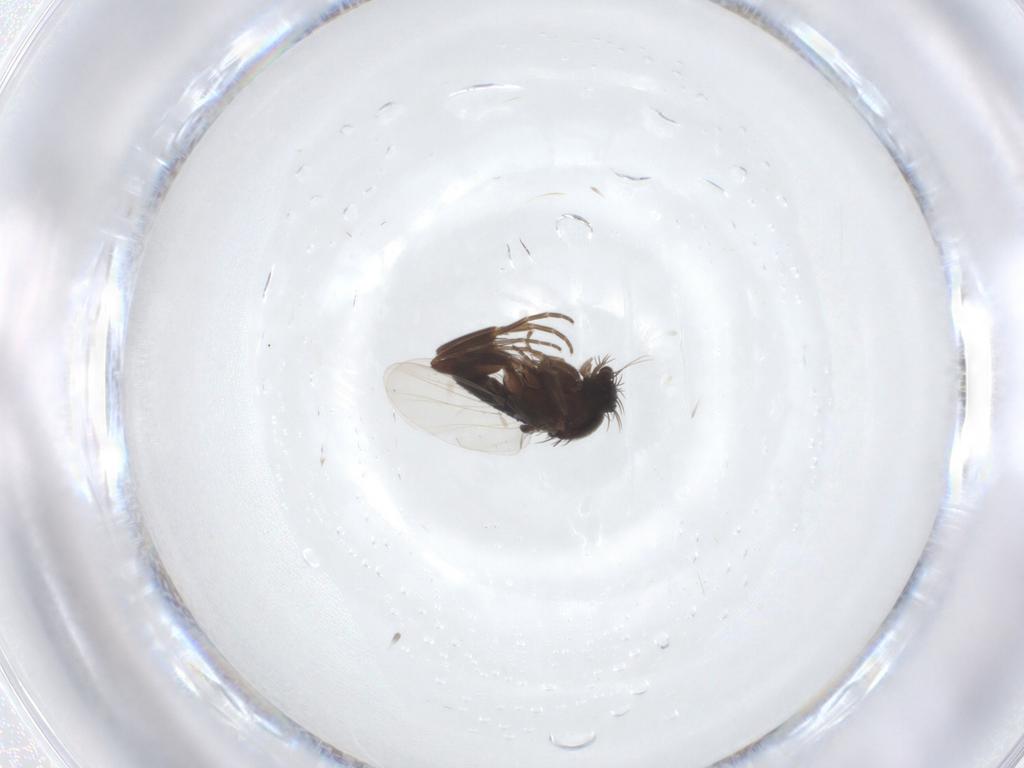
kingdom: Animalia
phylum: Arthropoda
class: Insecta
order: Diptera
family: Phoridae
